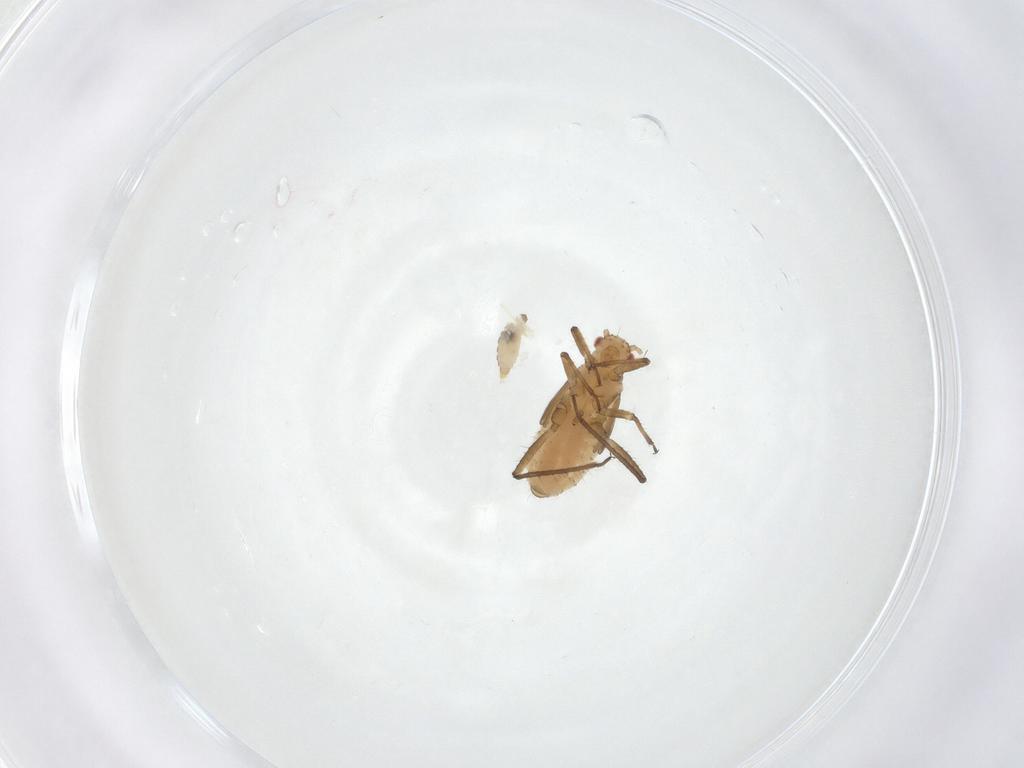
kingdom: Animalia
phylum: Arthropoda
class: Insecta
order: Diptera
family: Cecidomyiidae
